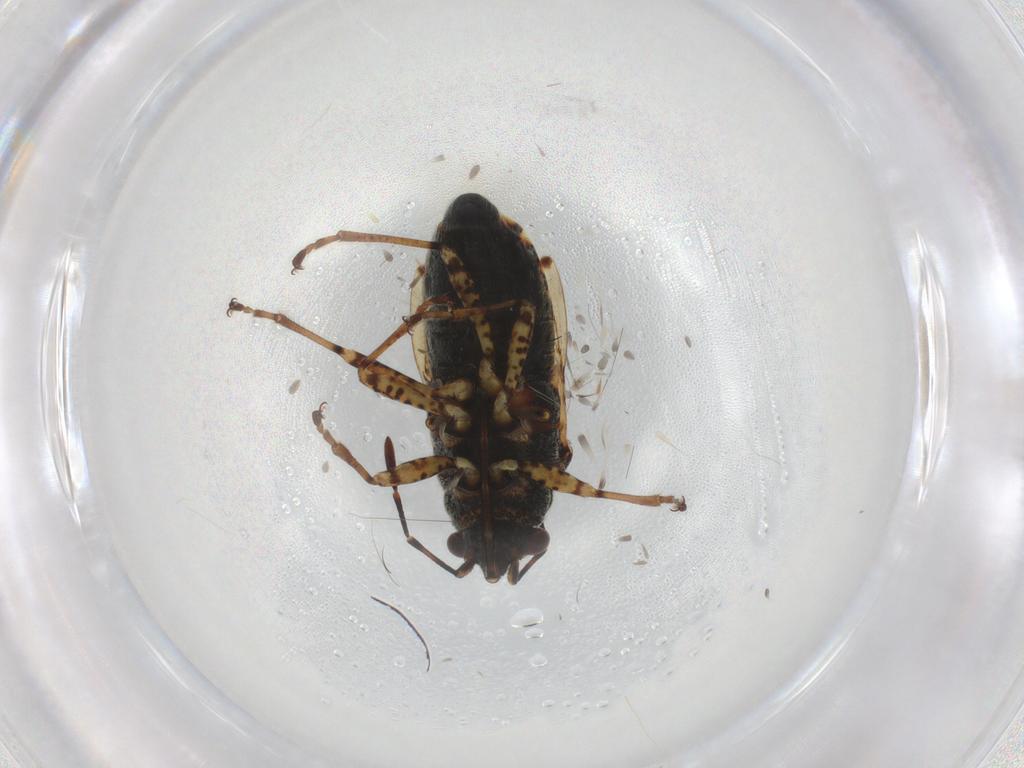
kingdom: Animalia
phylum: Arthropoda
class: Insecta
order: Hemiptera
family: Lygaeidae
